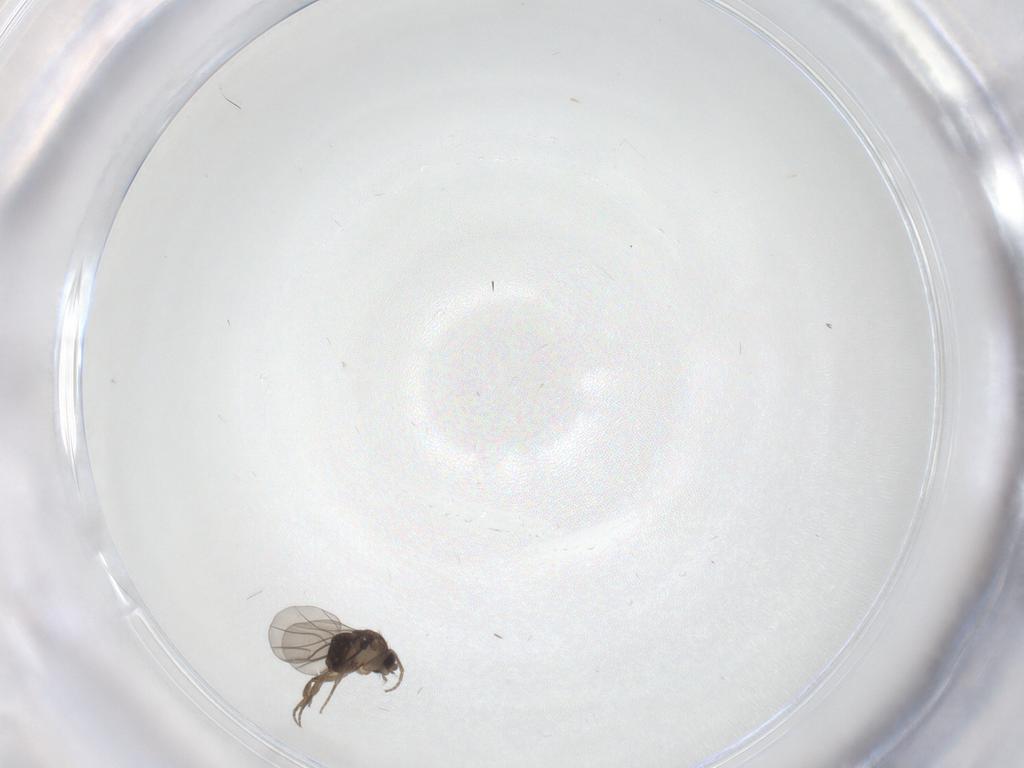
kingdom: Animalia
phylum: Arthropoda
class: Insecta
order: Diptera
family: Phoridae
